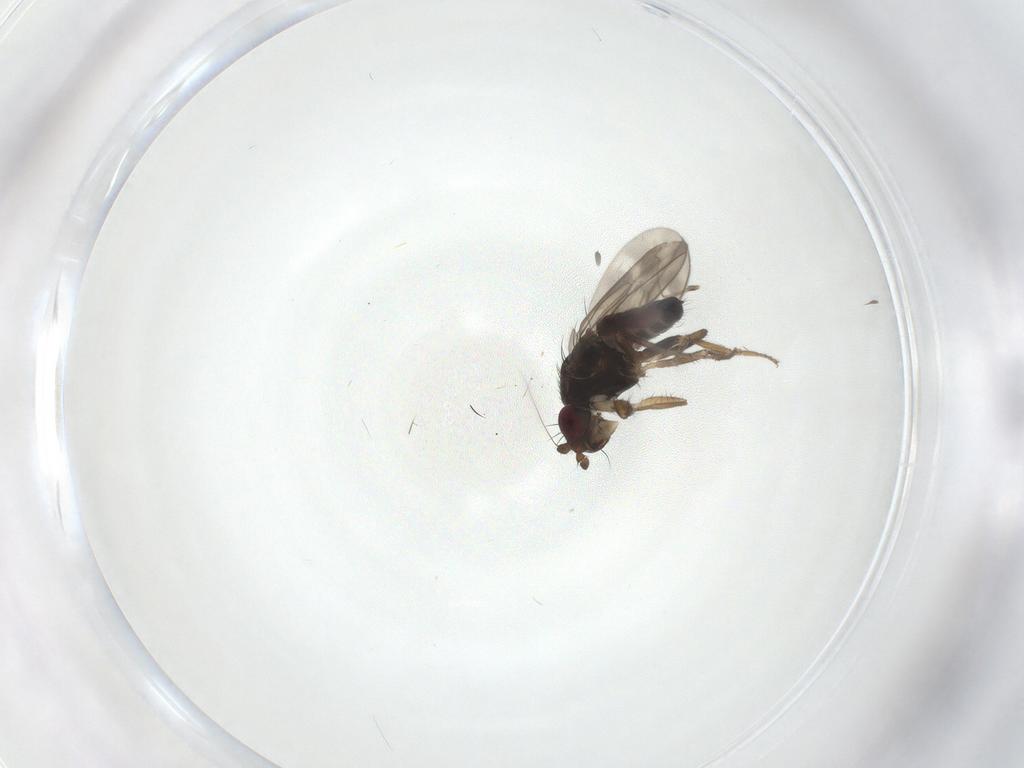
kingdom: Animalia
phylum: Arthropoda
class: Insecta
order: Diptera
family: Sphaeroceridae
